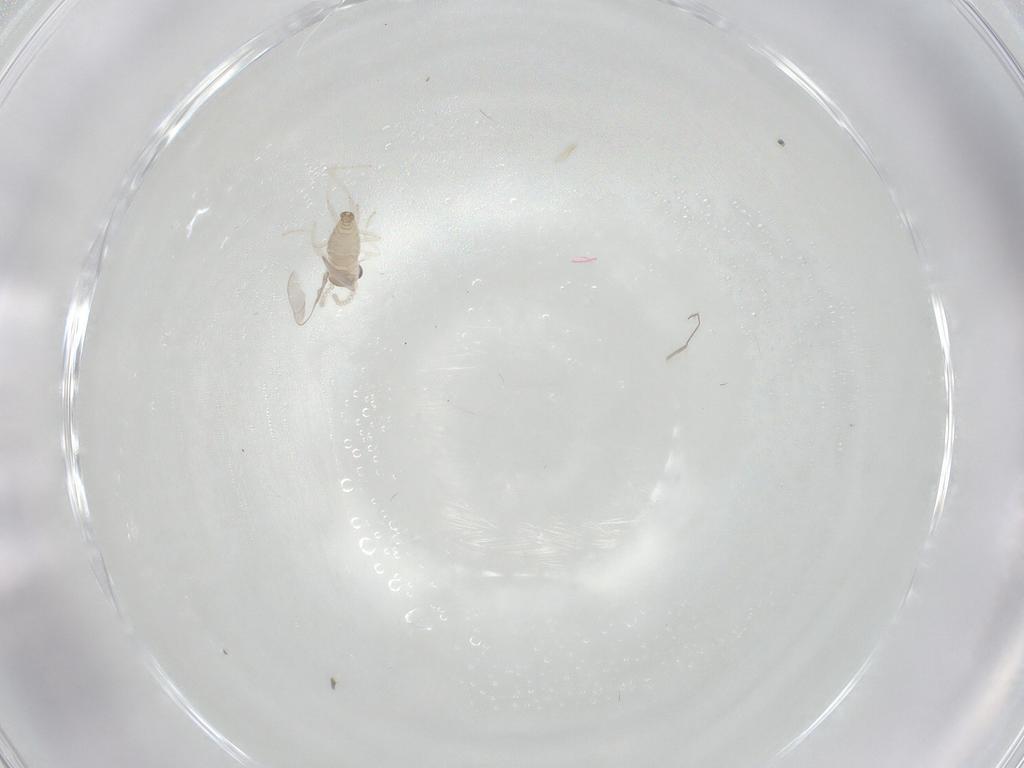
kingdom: Animalia
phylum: Arthropoda
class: Insecta
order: Diptera
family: Cecidomyiidae
